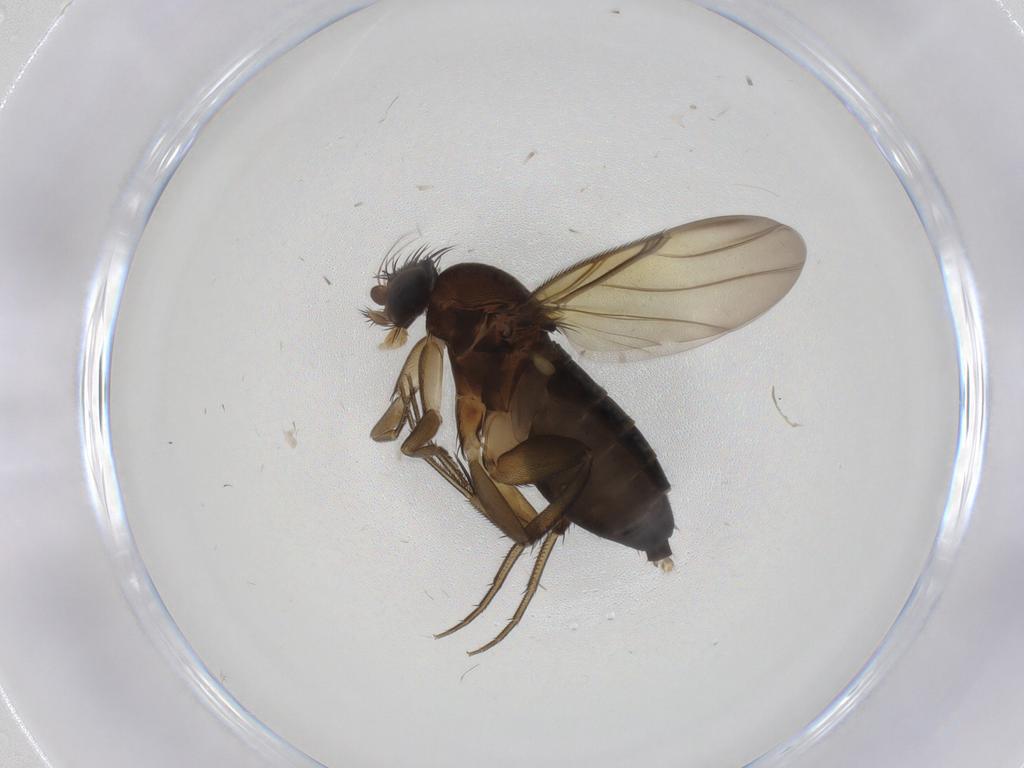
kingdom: Animalia
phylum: Arthropoda
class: Insecta
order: Diptera
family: Phoridae
